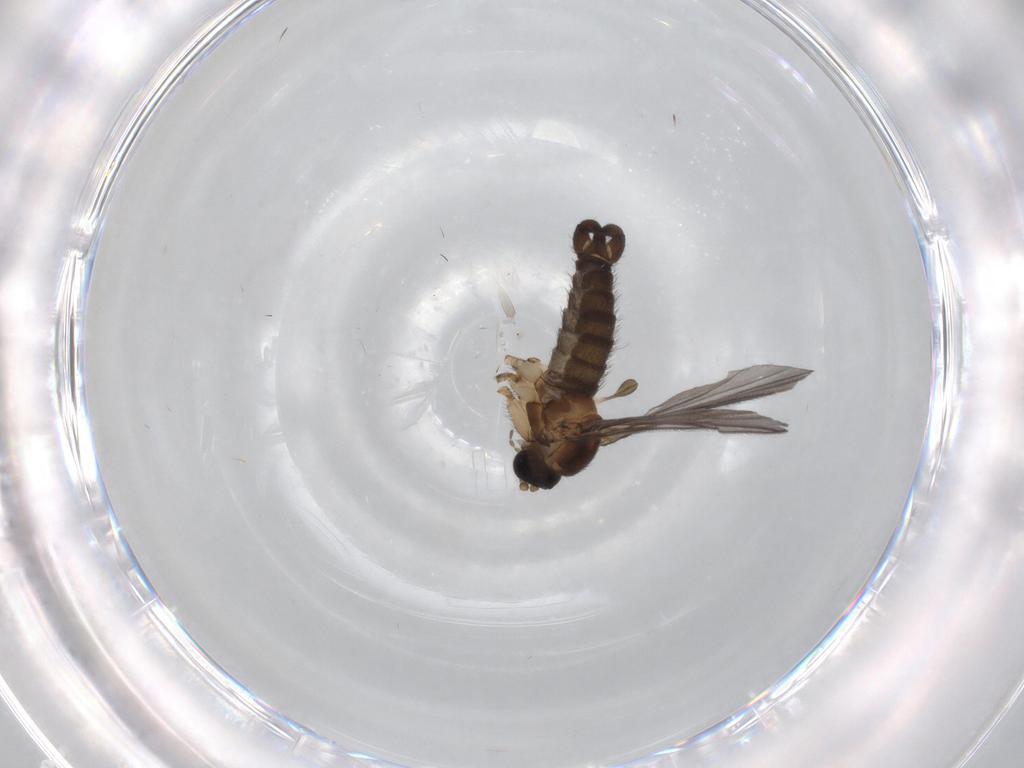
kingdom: Animalia
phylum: Arthropoda
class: Insecta
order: Diptera
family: Sciaridae
